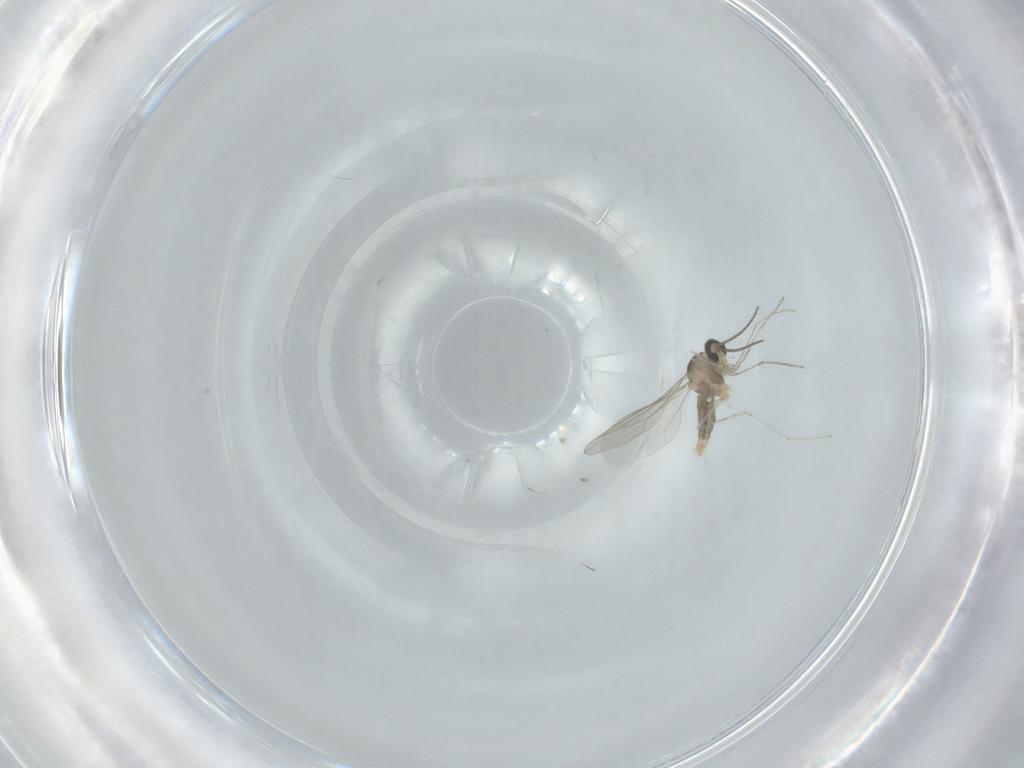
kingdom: Animalia
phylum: Arthropoda
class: Insecta
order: Diptera
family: Cecidomyiidae
